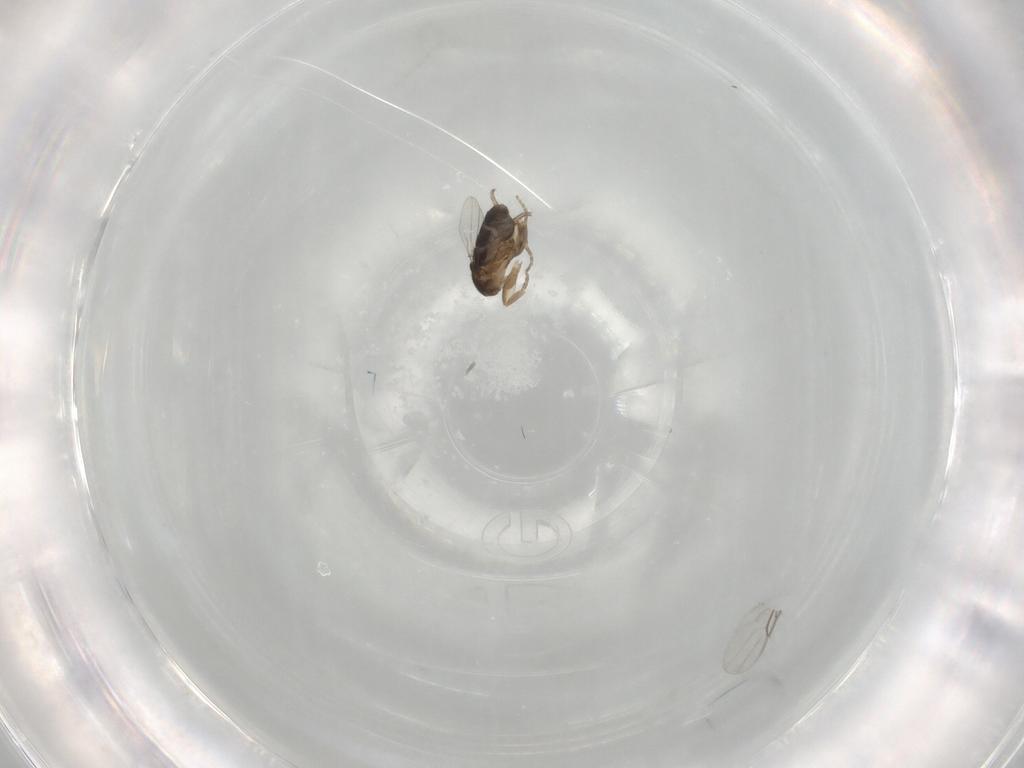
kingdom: Animalia
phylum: Arthropoda
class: Insecta
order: Diptera
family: Phoridae
